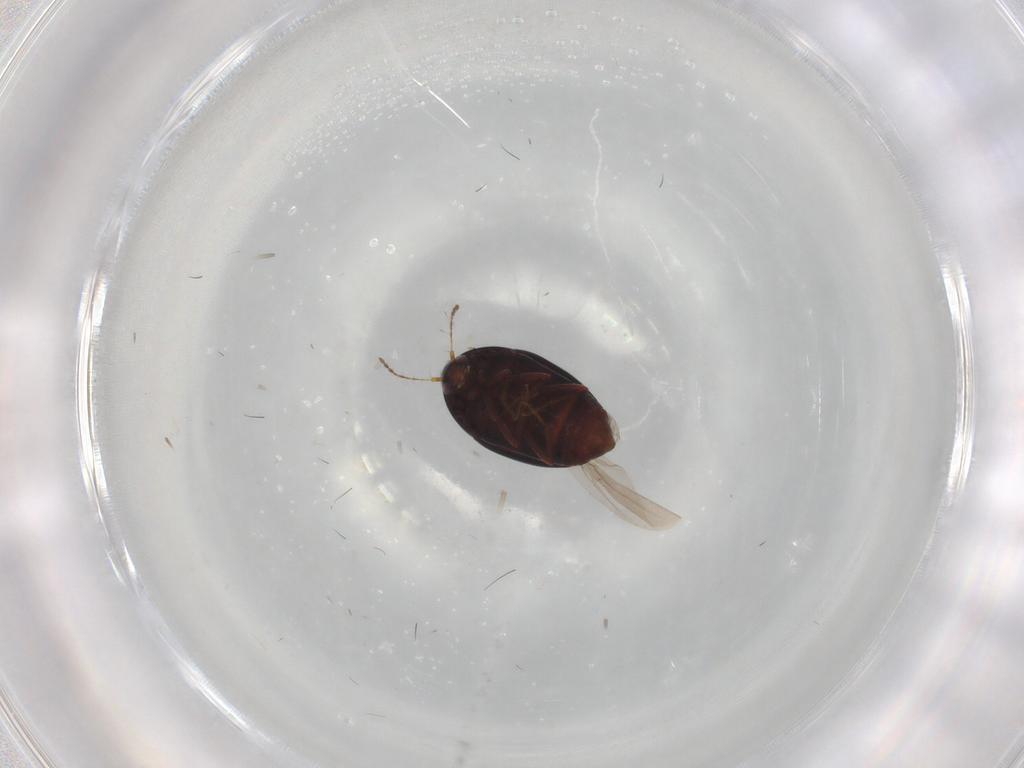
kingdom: Animalia
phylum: Arthropoda
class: Insecta
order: Coleoptera
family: Staphylinidae
